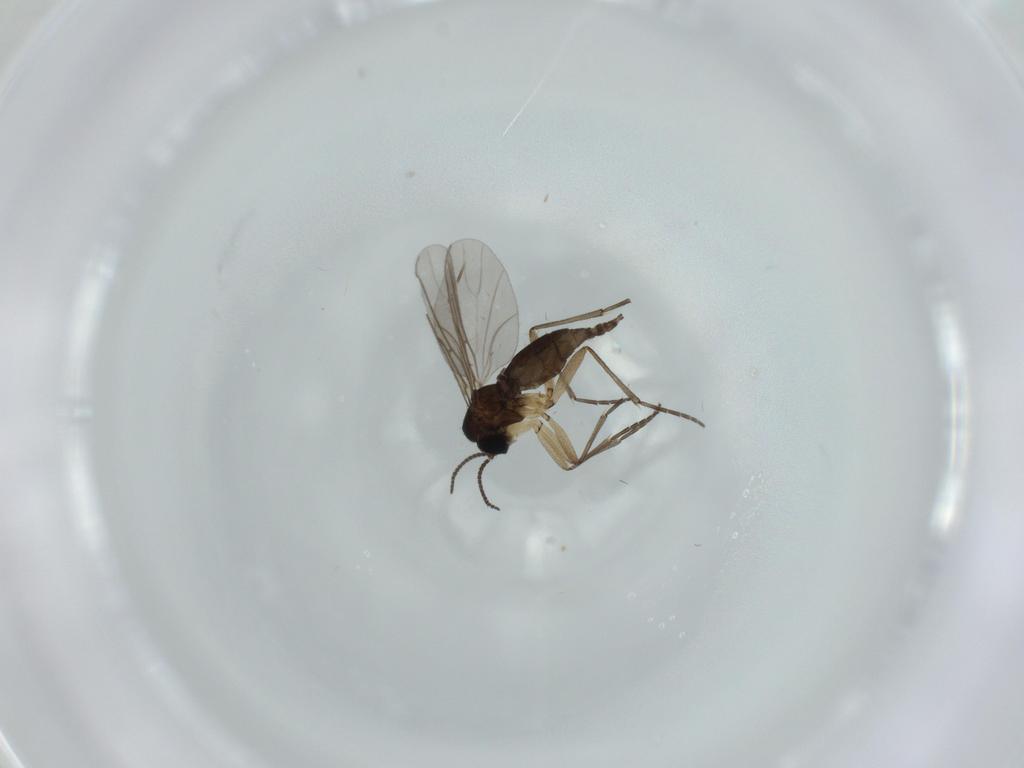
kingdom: Animalia
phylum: Arthropoda
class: Insecta
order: Diptera
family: Sciaridae
